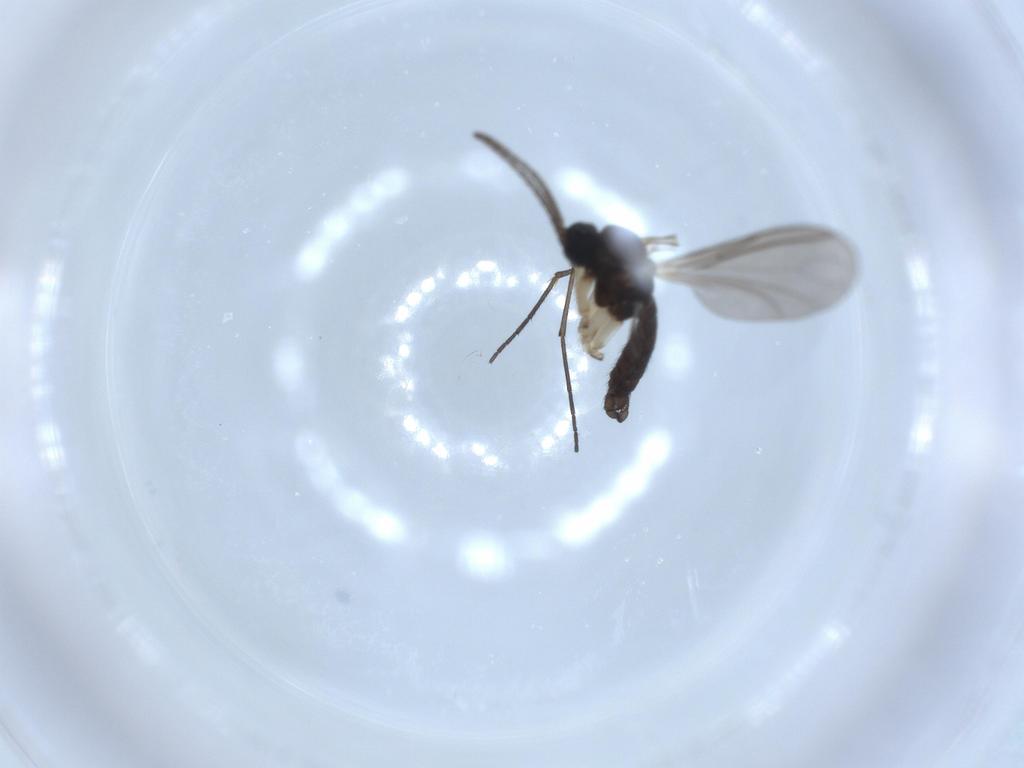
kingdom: Animalia
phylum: Arthropoda
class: Insecta
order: Diptera
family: Sciaridae
